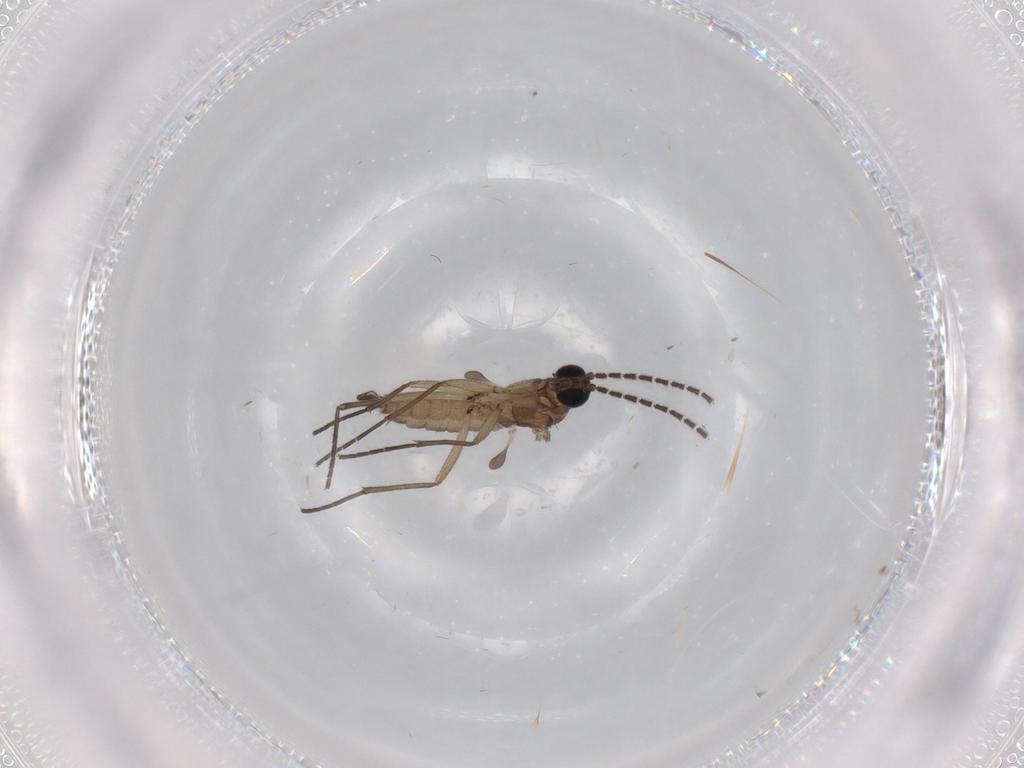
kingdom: Animalia
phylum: Arthropoda
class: Insecta
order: Diptera
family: Sciaridae
